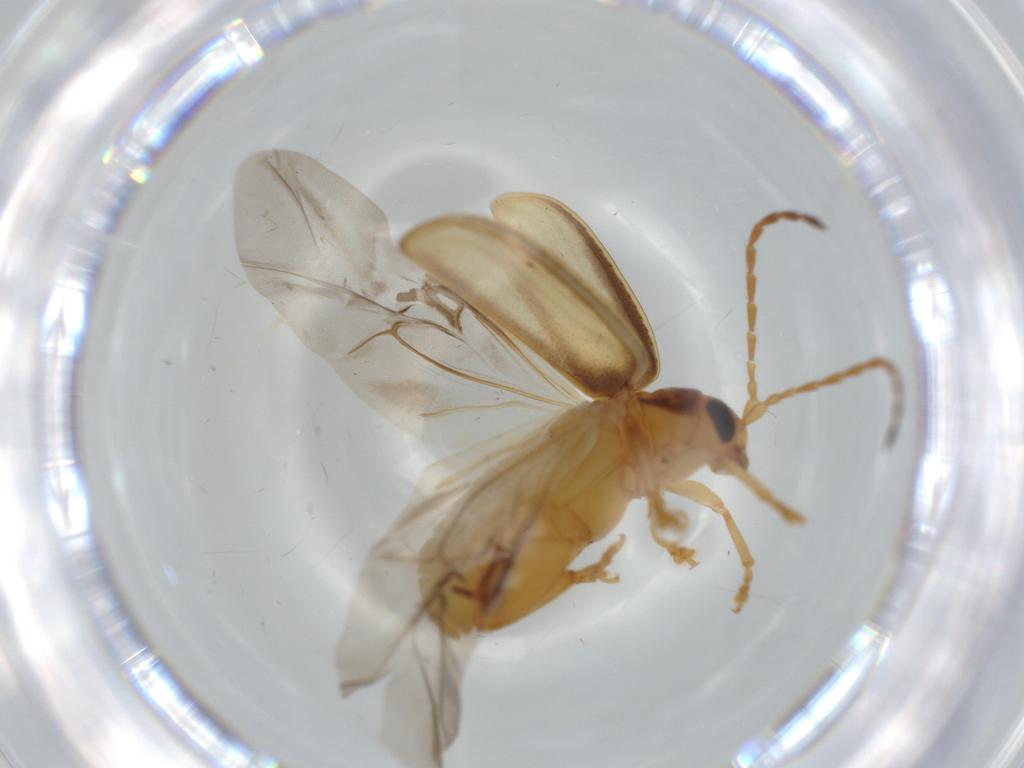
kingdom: Animalia
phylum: Arthropoda
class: Insecta
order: Coleoptera
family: Chrysomelidae
